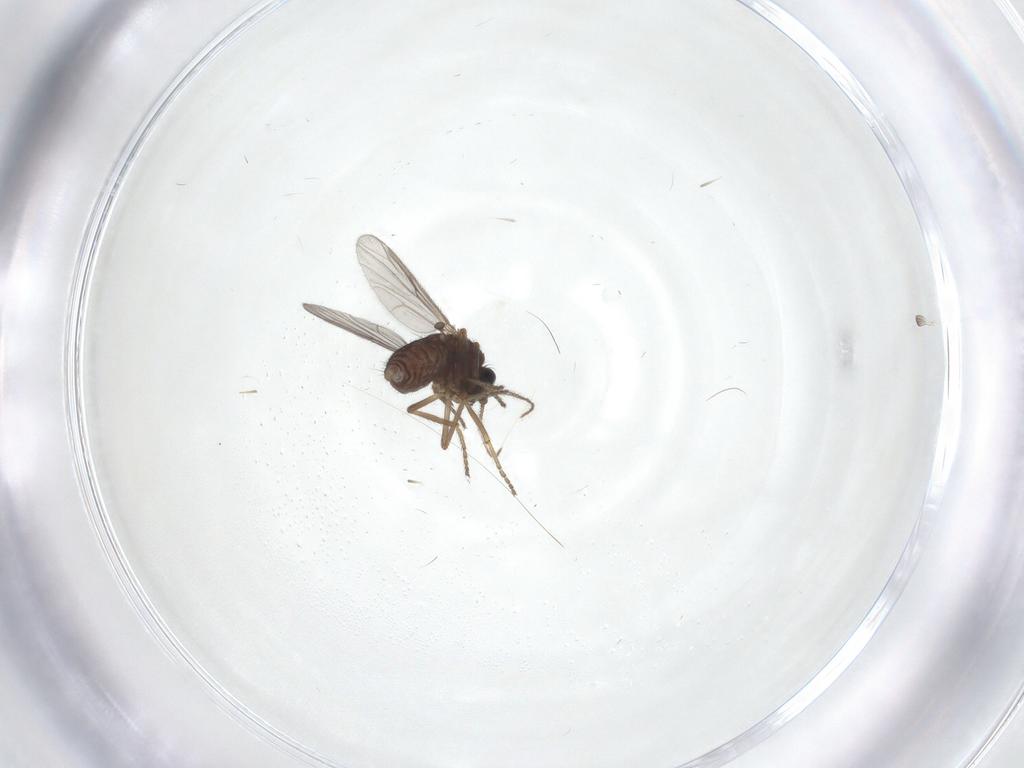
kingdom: Animalia
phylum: Arthropoda
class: Insecta
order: Diptera
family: Ceratopogonidae
